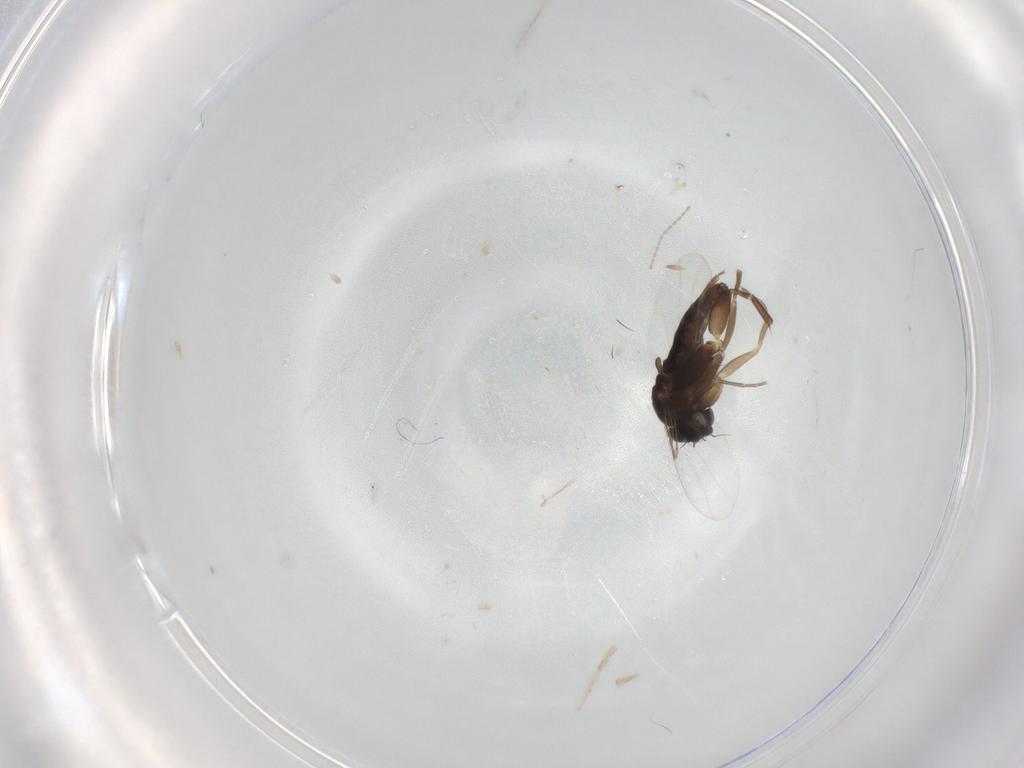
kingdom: Animalia
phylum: Arthropoda
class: Insecta
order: Diptera
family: Phoridae
